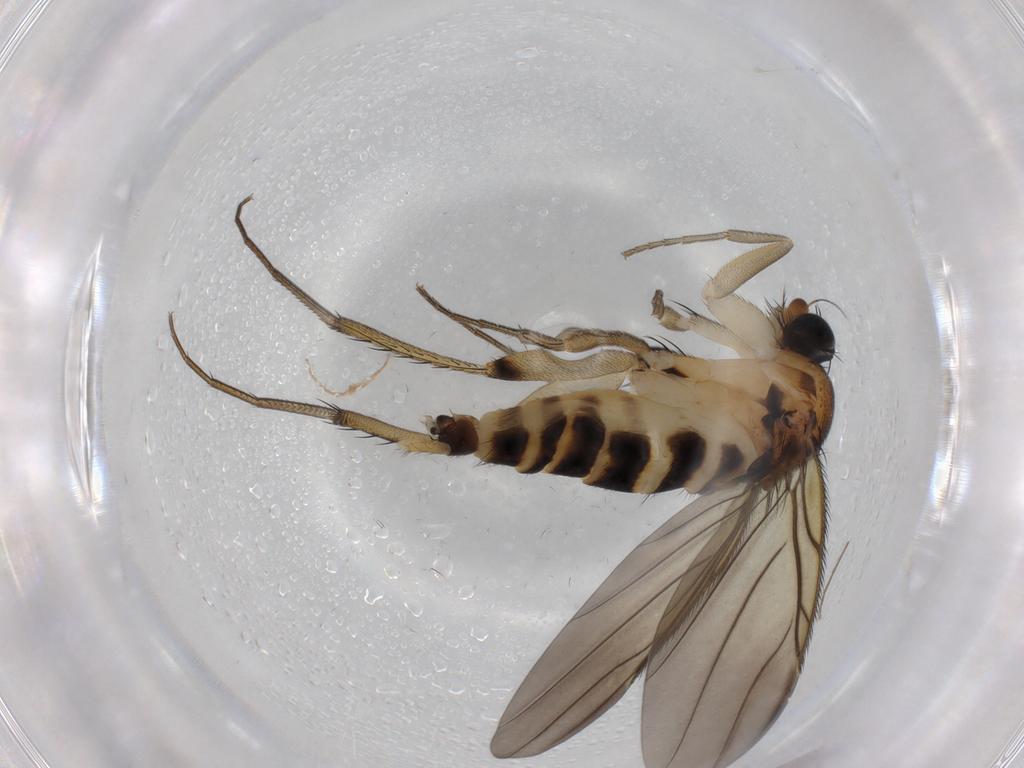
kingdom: Animalia
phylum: Arthropoda
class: Insecta
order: Diptera
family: Phoridae
